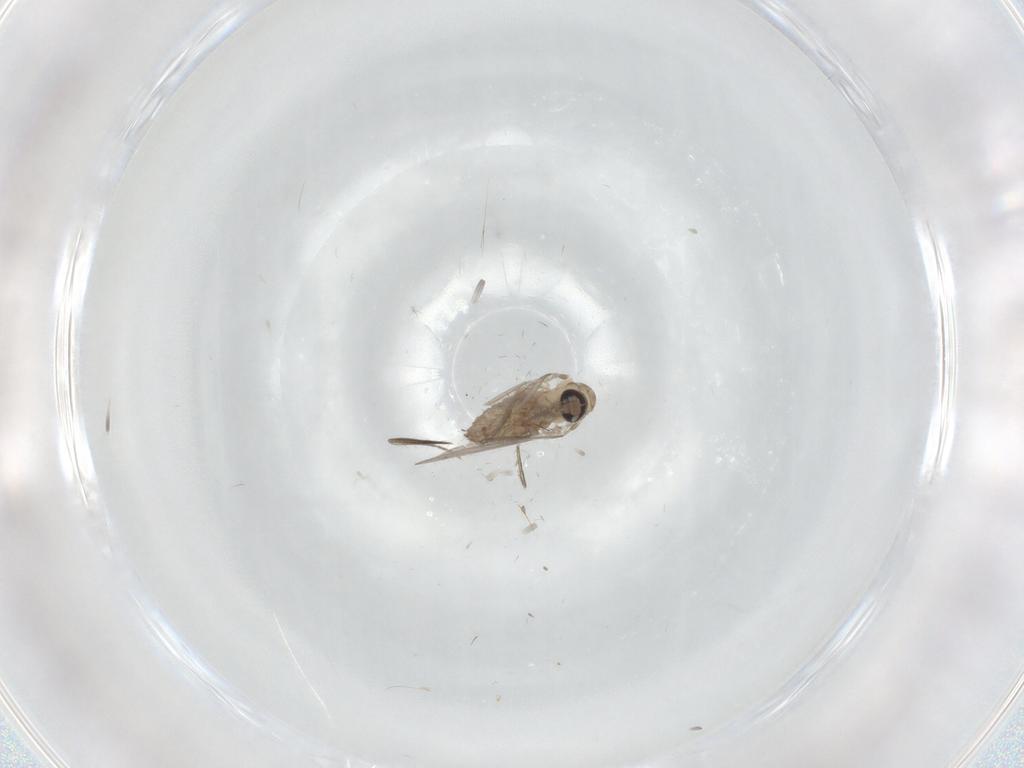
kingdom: Animalia
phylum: Arthropoda
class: Insecta
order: Diptera
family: Psychodidae
